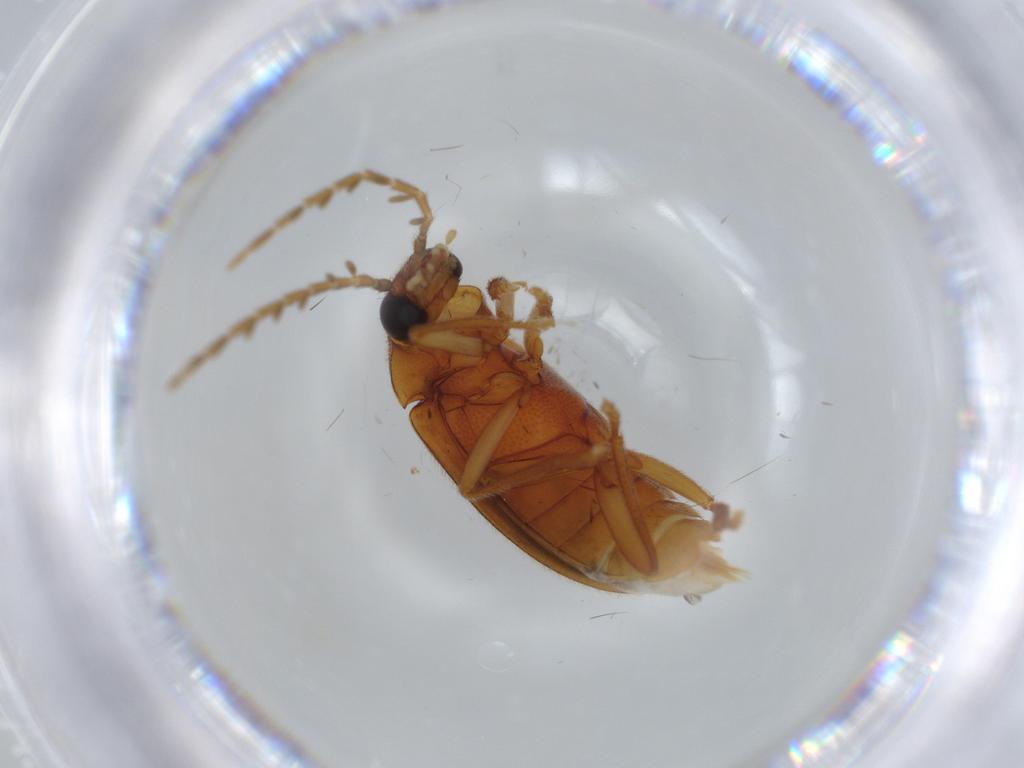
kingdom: Animalia
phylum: Arthropoda
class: Insecta
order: Coleoptera
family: Ptilodactylidae
